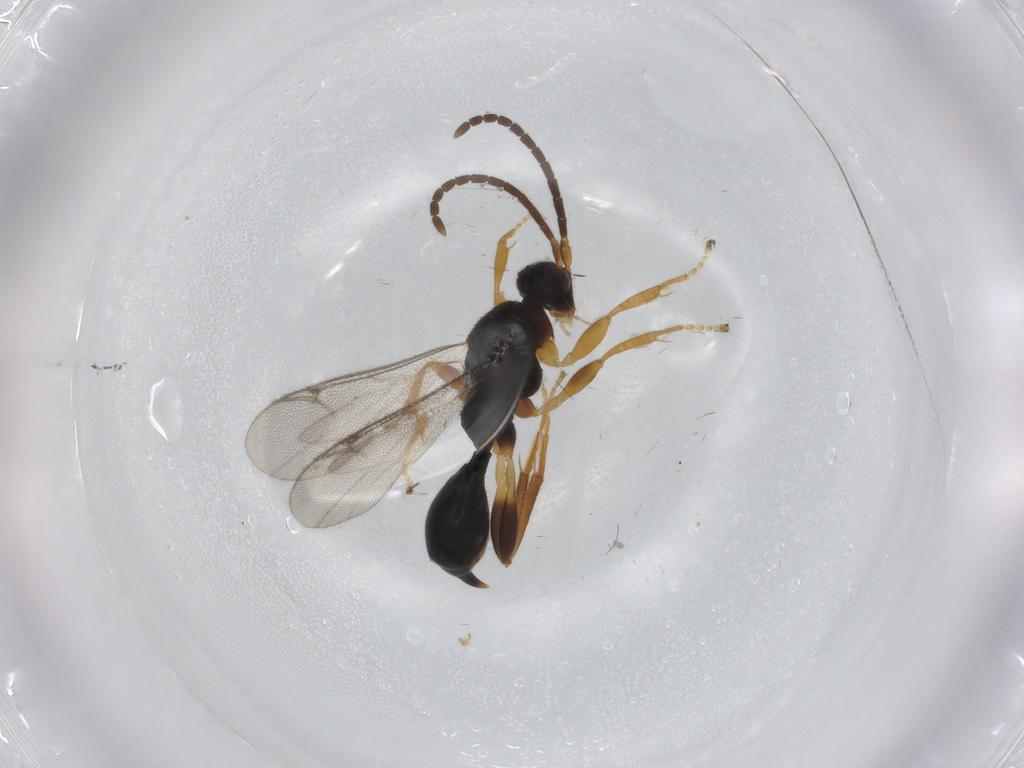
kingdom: Animalia
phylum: Arthropoda
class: Insecta
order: Hymenoptera
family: Proctotrupidae
